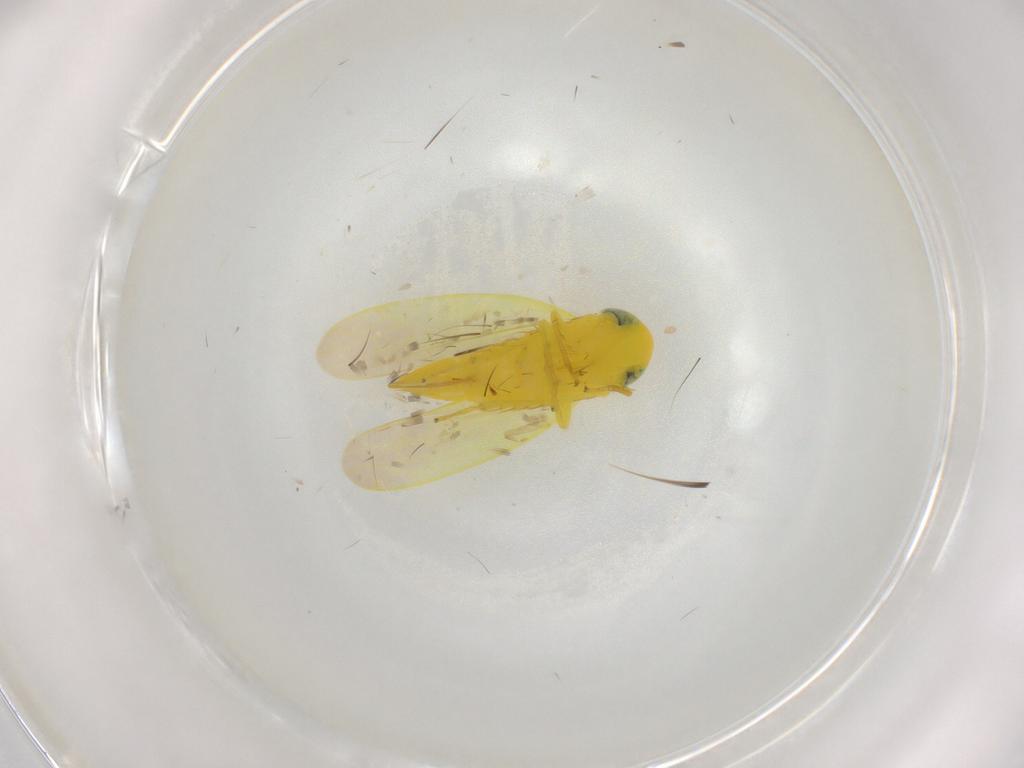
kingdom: Animalia
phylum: Arthropoda
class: Insecta
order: Hemiptera
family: Cicadellidae
